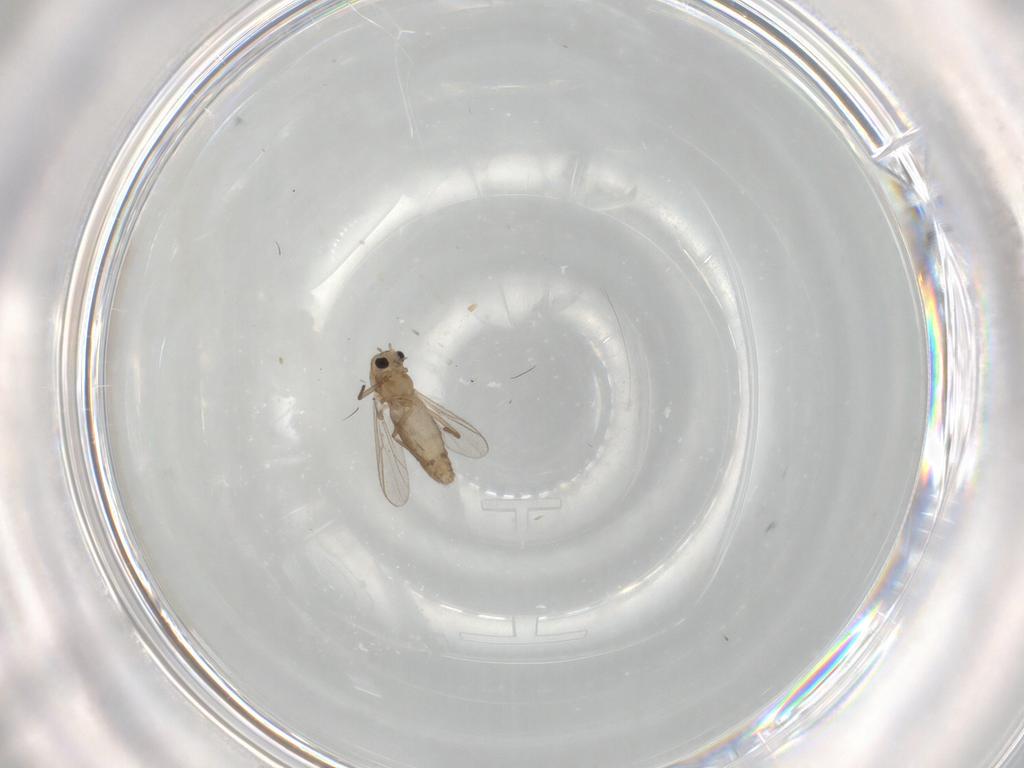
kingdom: Animalia
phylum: Arthropoda
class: Insecta
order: Diptera
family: Chironomidae
